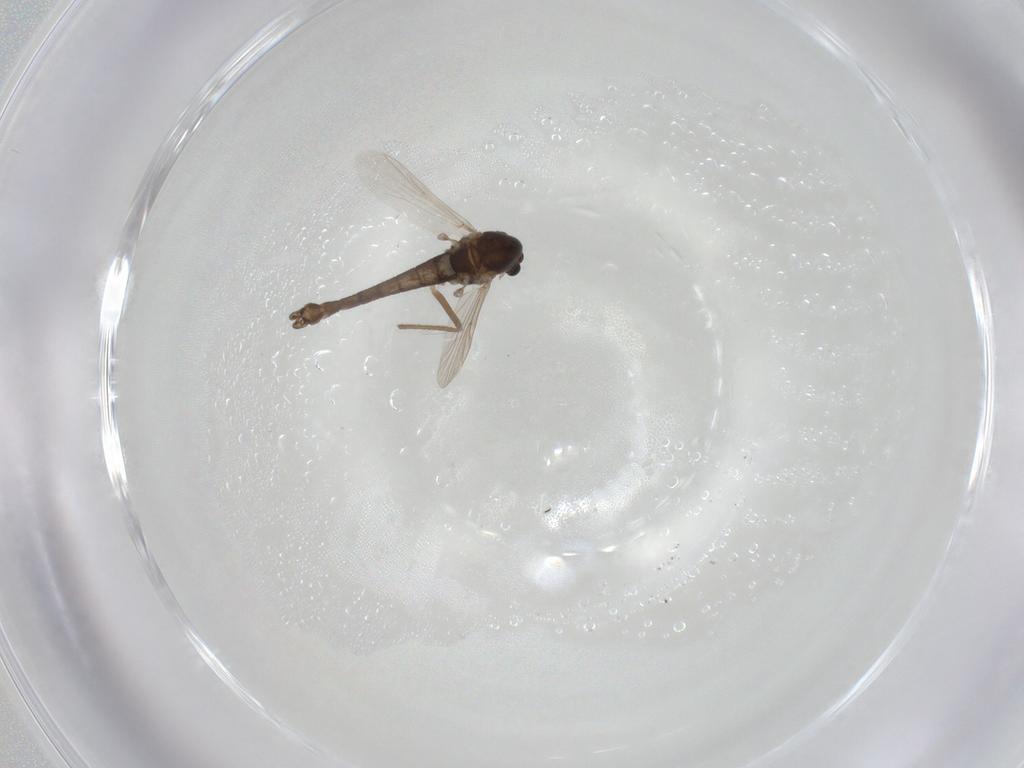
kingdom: Animalia
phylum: Arthropoda
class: Insecta
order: Diptera
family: Chironomidae
